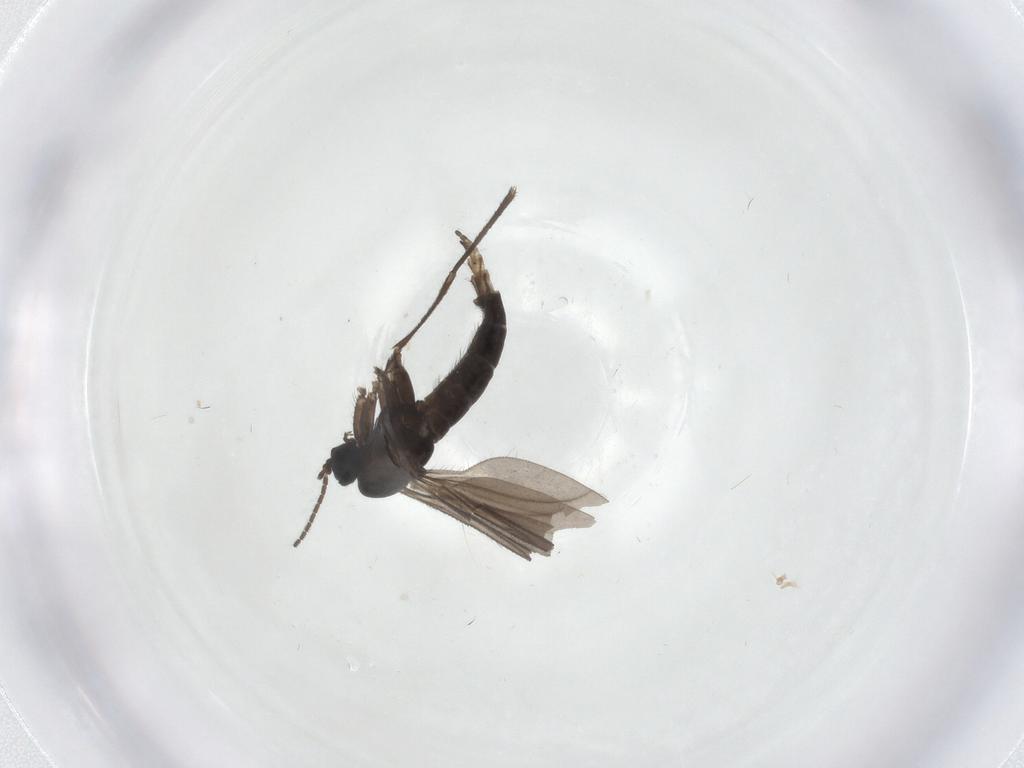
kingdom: Animalia
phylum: Arthropoda
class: Insecta
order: Diptera
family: Sciaridae
